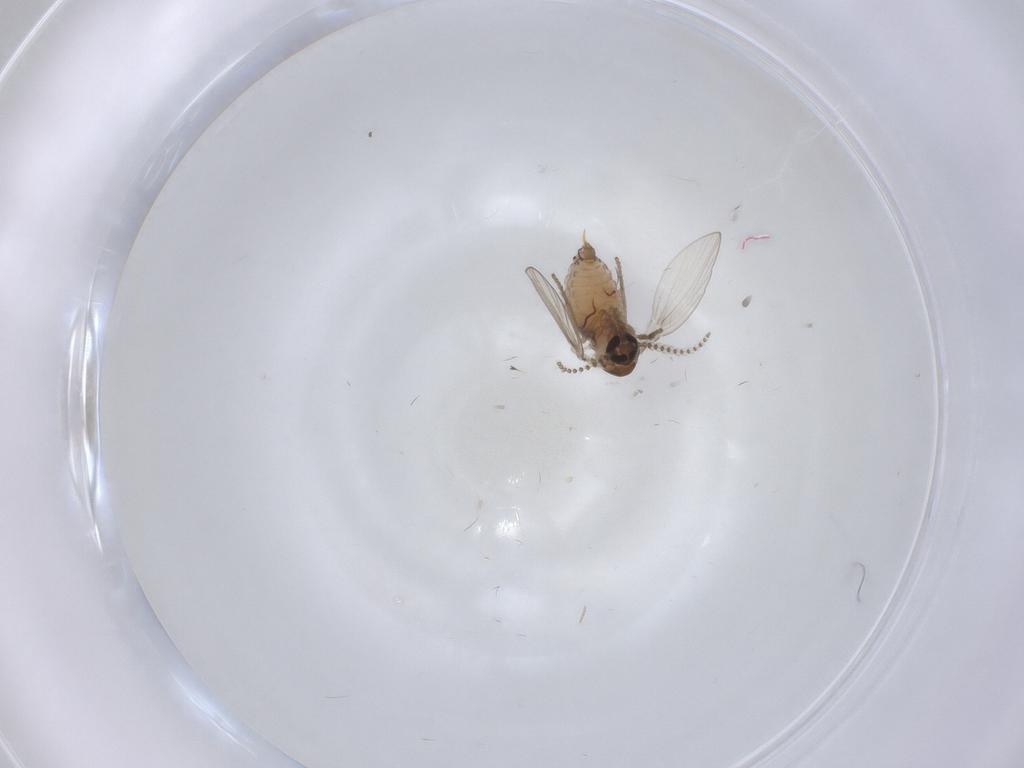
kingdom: Animalia
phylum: Arthropoda
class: Insecta
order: Diptera
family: Psychodidae
